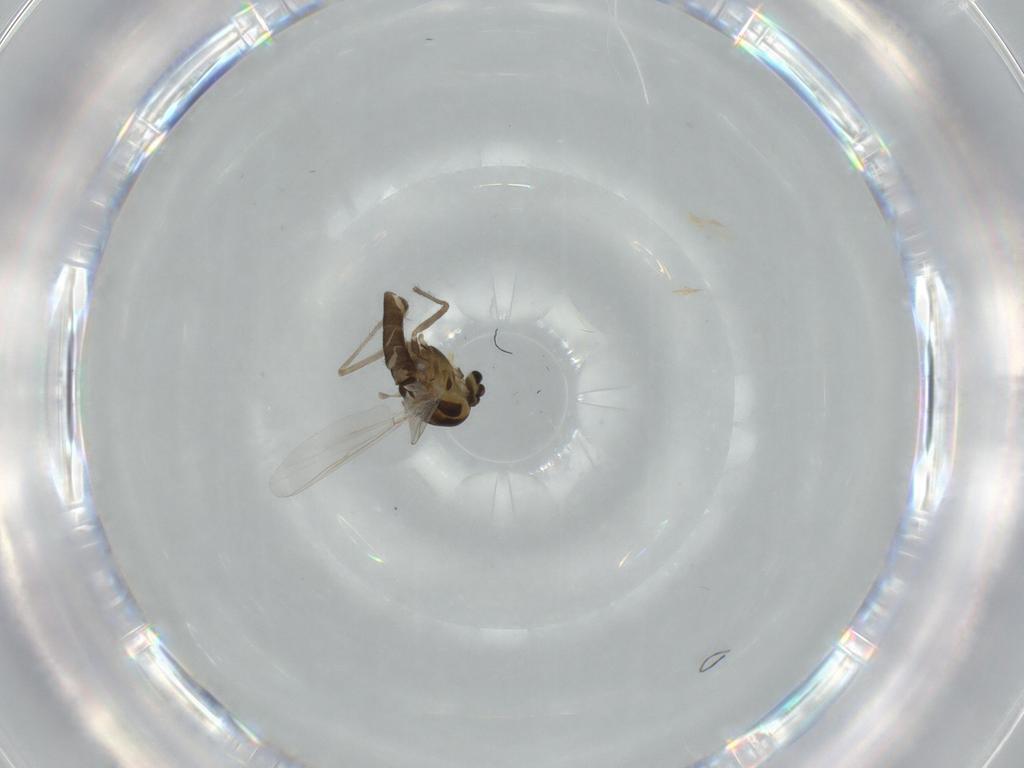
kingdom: Animalia
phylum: Arthropoda
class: Insecta
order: Diptera
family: Chironomidae
